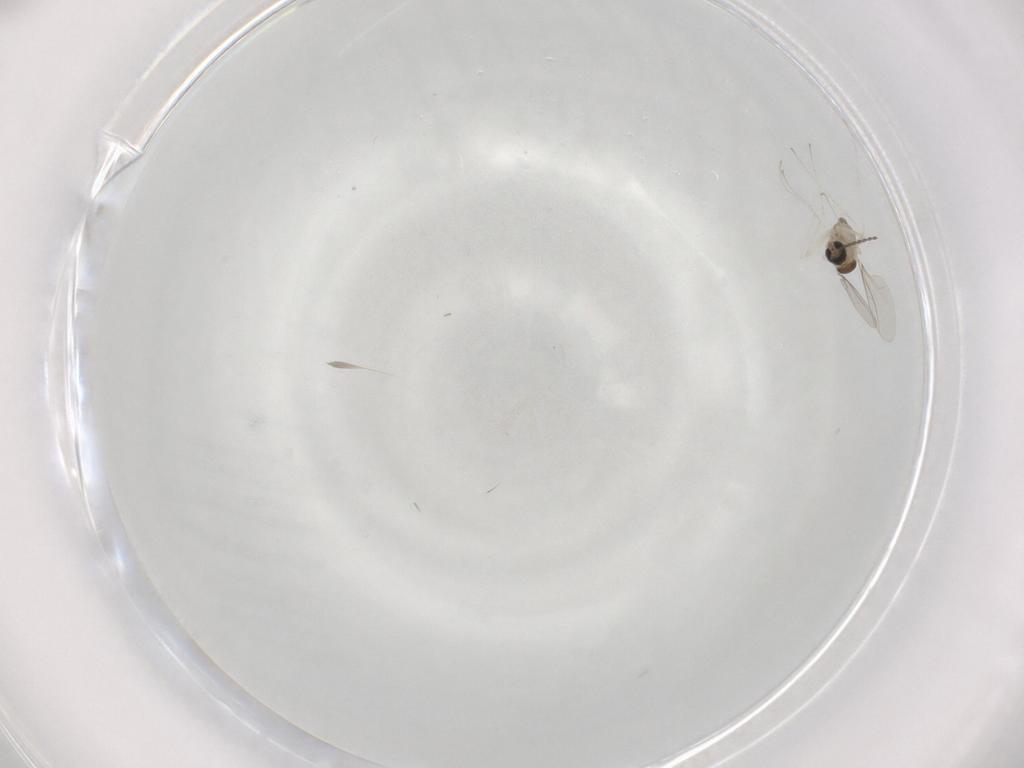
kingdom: Animalia
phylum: Arthropoda
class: Insecta
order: Diptera
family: Cecidomyiidae
